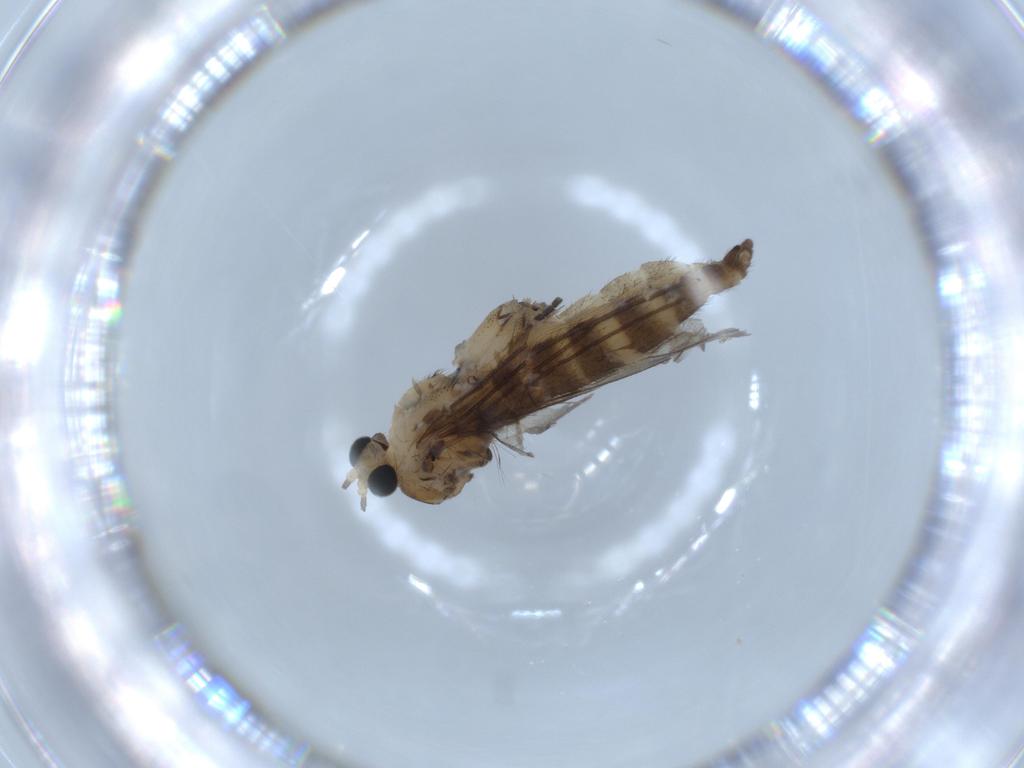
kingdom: Animalia
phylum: Arthropoda
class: Insecta
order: Diptera
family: Sciaridae
